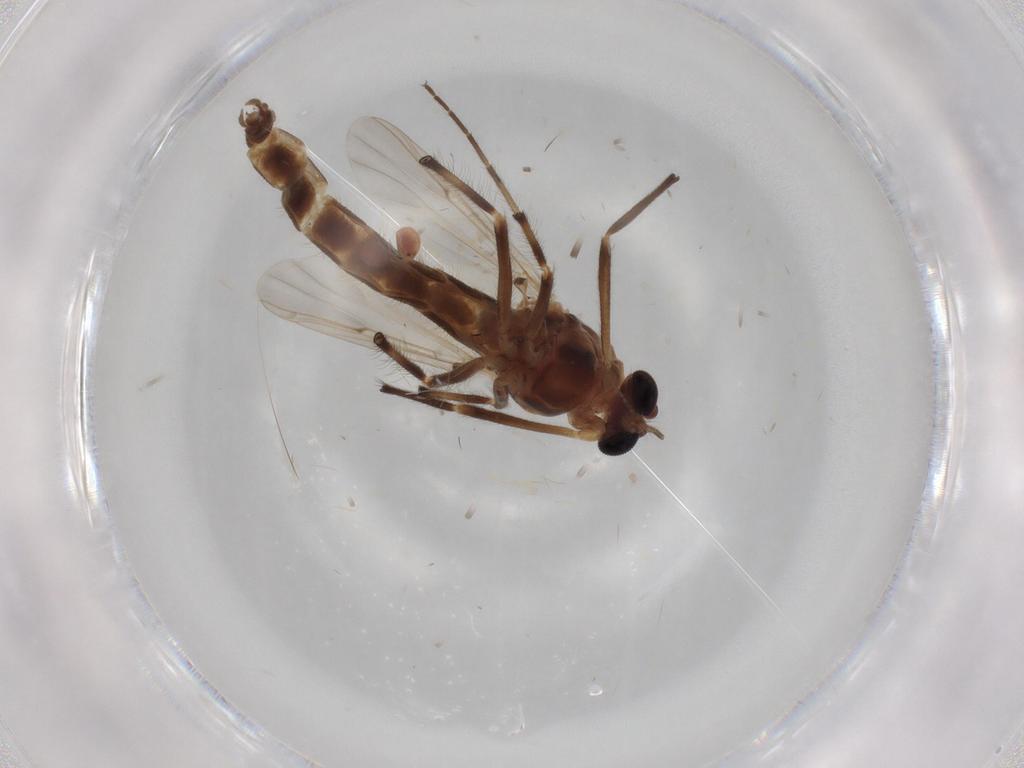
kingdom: Animalia
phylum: Arthropoda
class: Insecta
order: Diptera
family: Chironomidae
